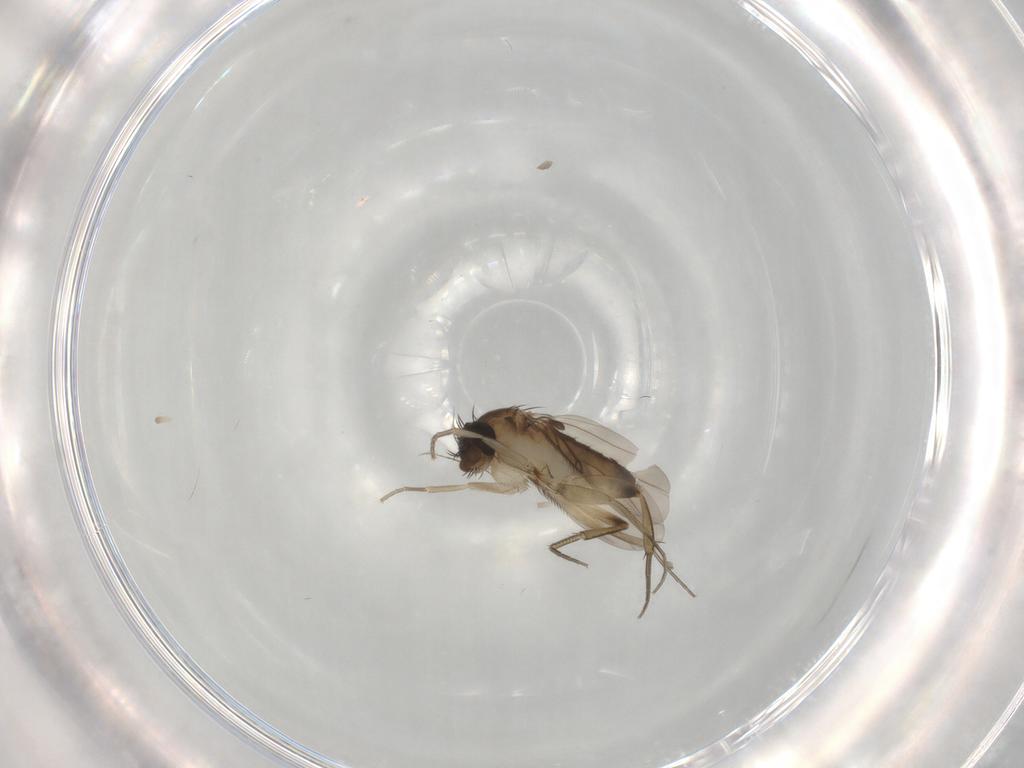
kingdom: Animalia
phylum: Arthropoda
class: Insecta
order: Diptera
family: Phoridae
